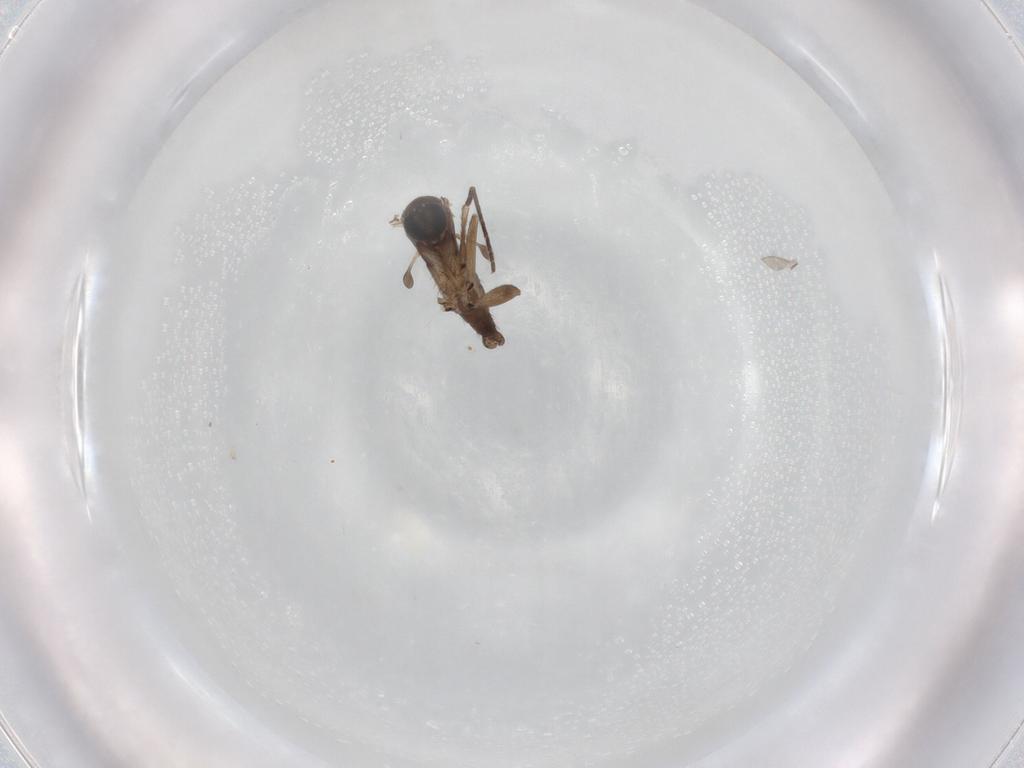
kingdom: Animalia
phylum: Arthropoda
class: Insecta
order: Diptera
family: Sciaridae
